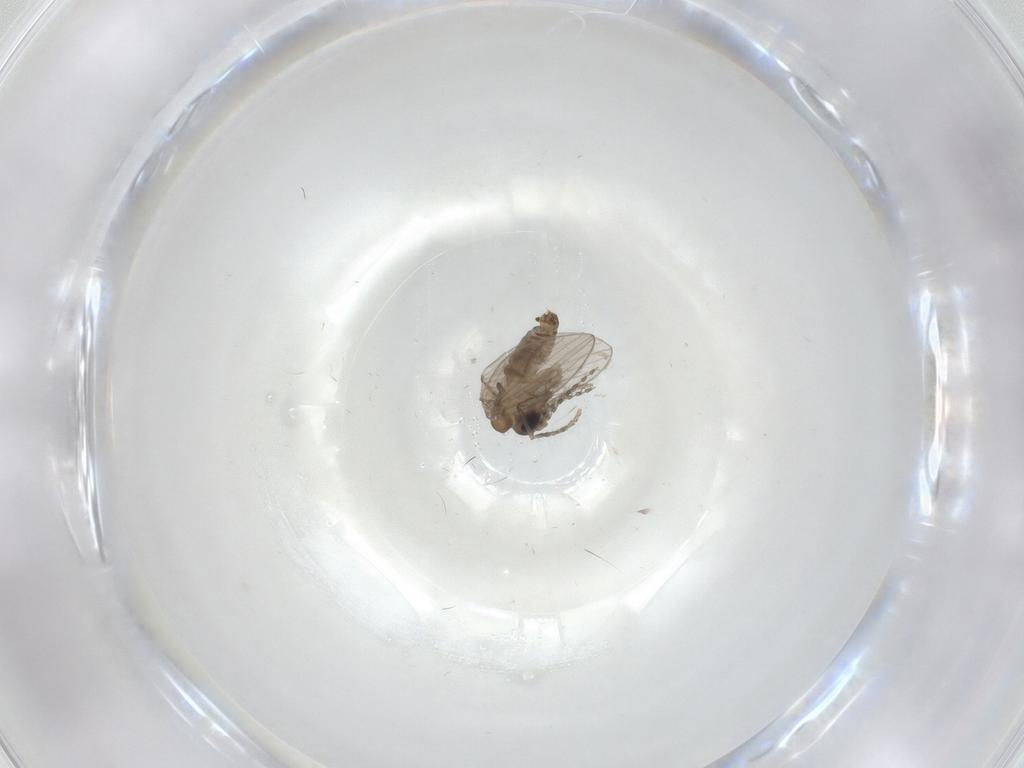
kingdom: Animalia
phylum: Arthropoda
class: Insecta
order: Diptera
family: Psychodidae
